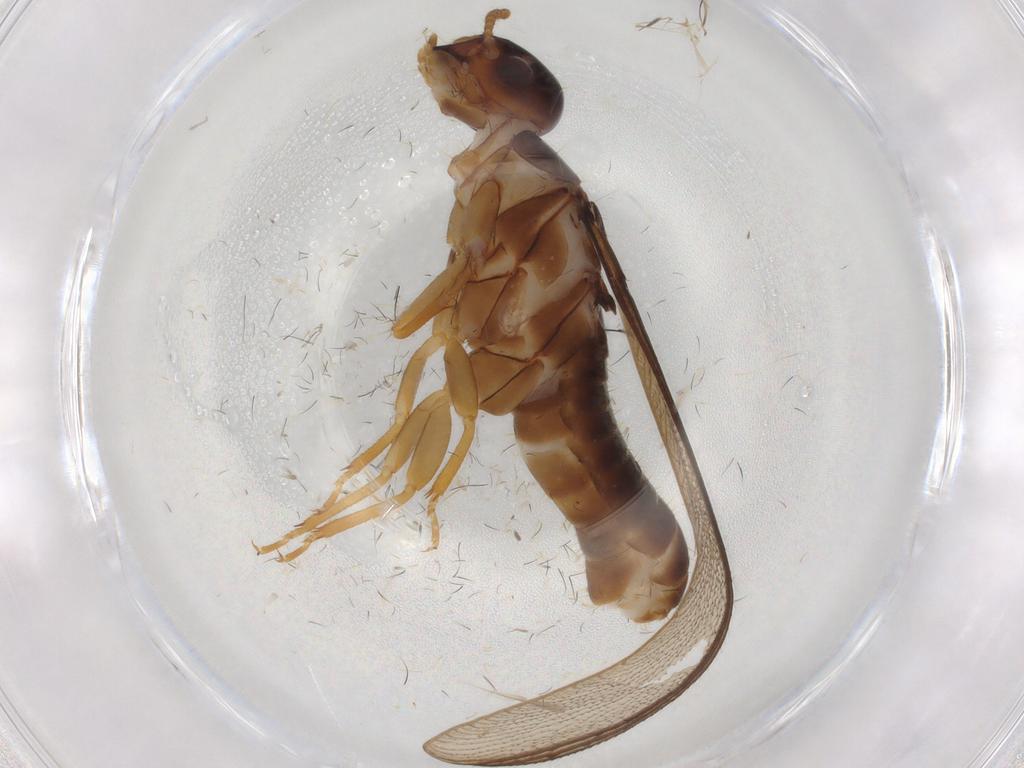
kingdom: Animalia
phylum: Arthropoda
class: Insecta
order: Blattodea
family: Kalotermitidae
